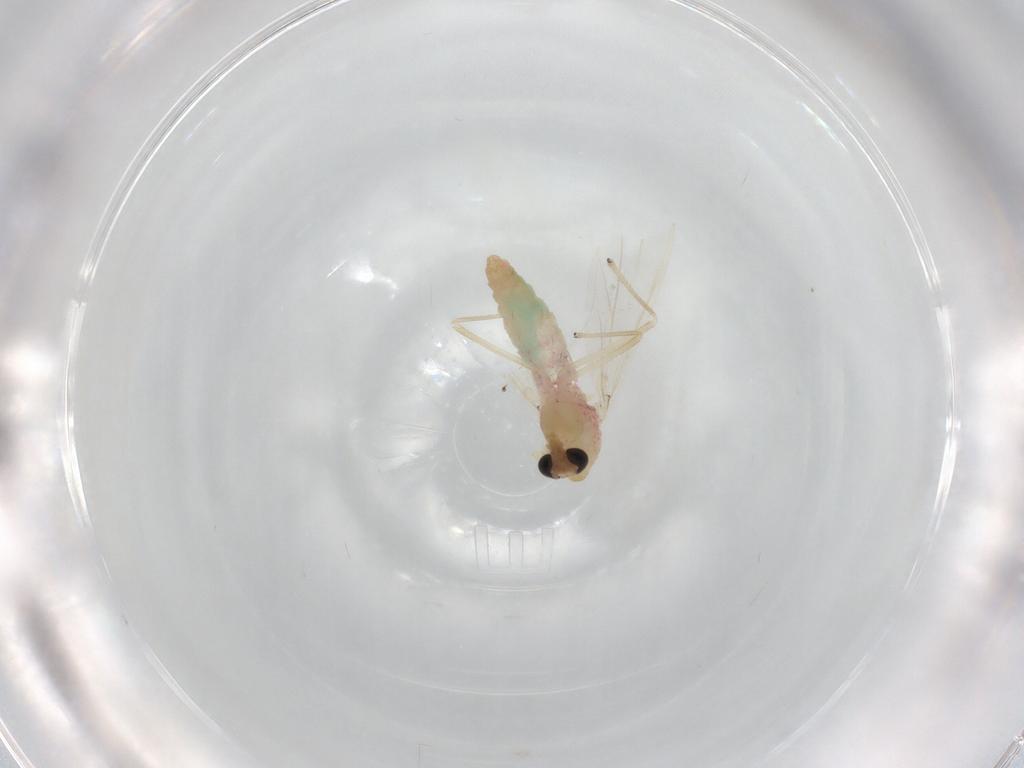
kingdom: Animalia
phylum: Arthropoda
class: Insecta
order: Diptera
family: Chironomidae
